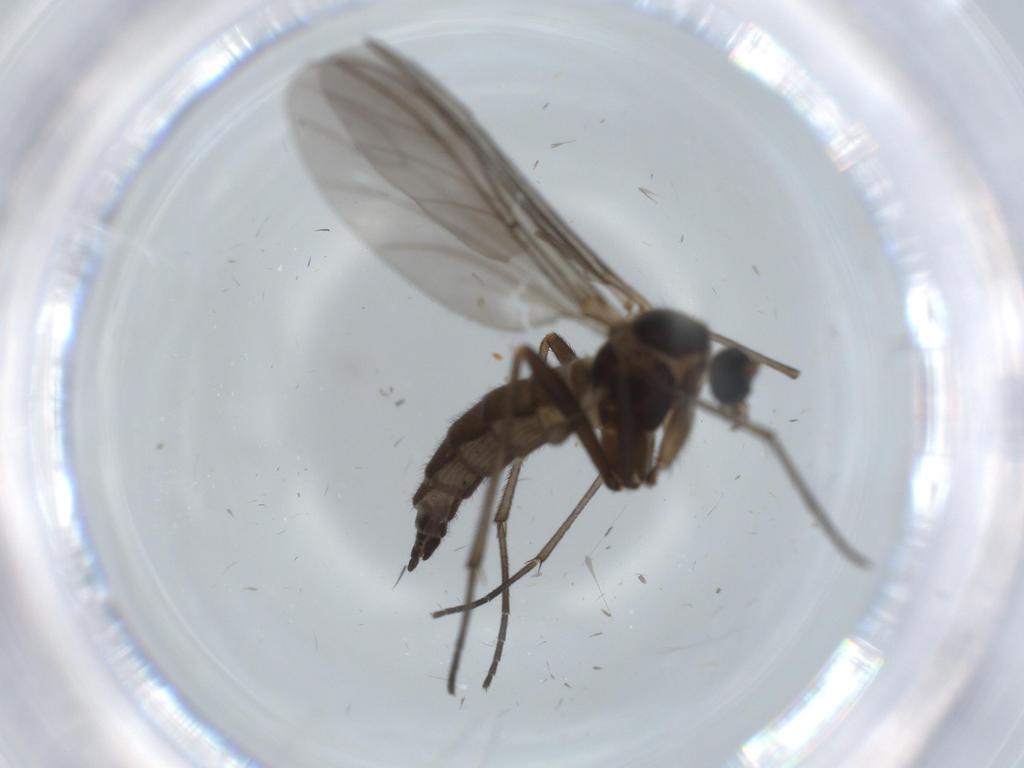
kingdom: Animalia
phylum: Arthropoda
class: Insecta
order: Diptera
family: Sciaridae
